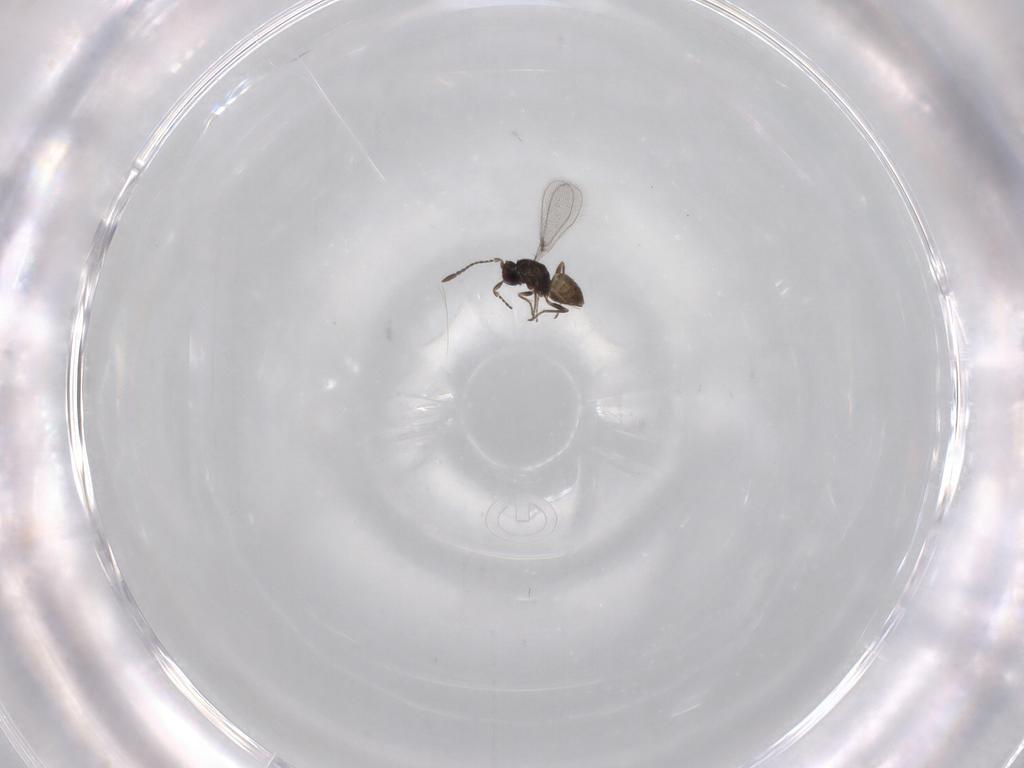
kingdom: Animalia
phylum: Arthropoda
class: Insecta
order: Hymenoptera
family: Mymaridae
